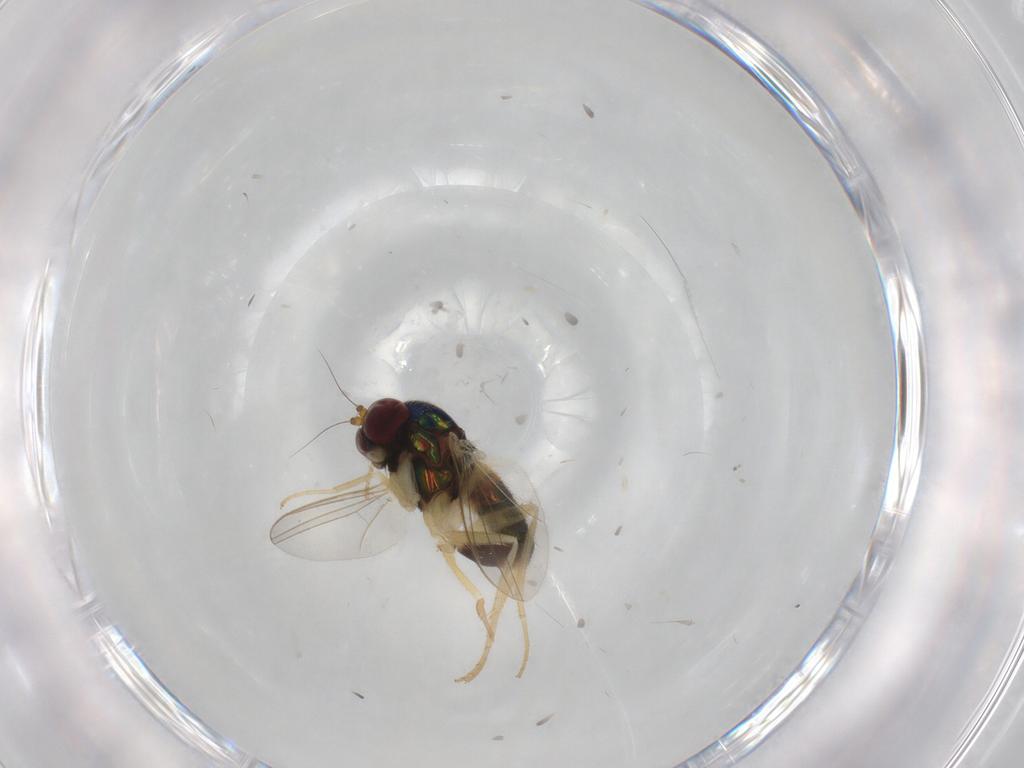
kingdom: Animalia
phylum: Arthropoda
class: Insecta
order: Diptera
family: Dolichopodidae
